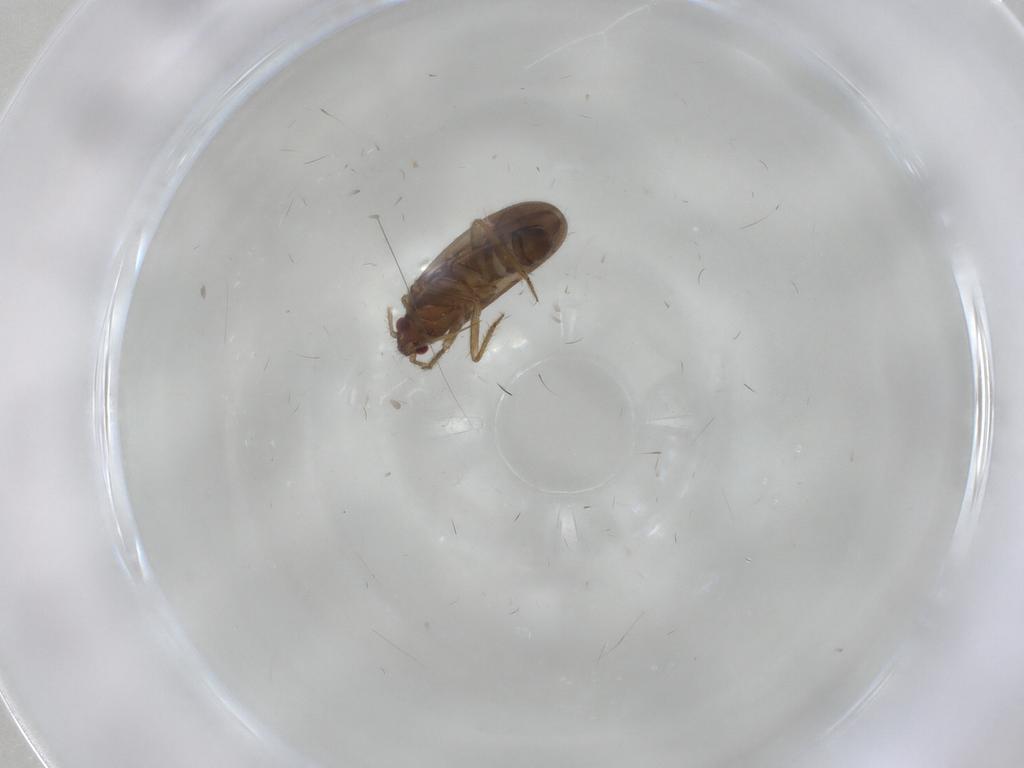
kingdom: Animalia
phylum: Arthropoda
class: Insecta
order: Hemiptera
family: Ceratocombidae
